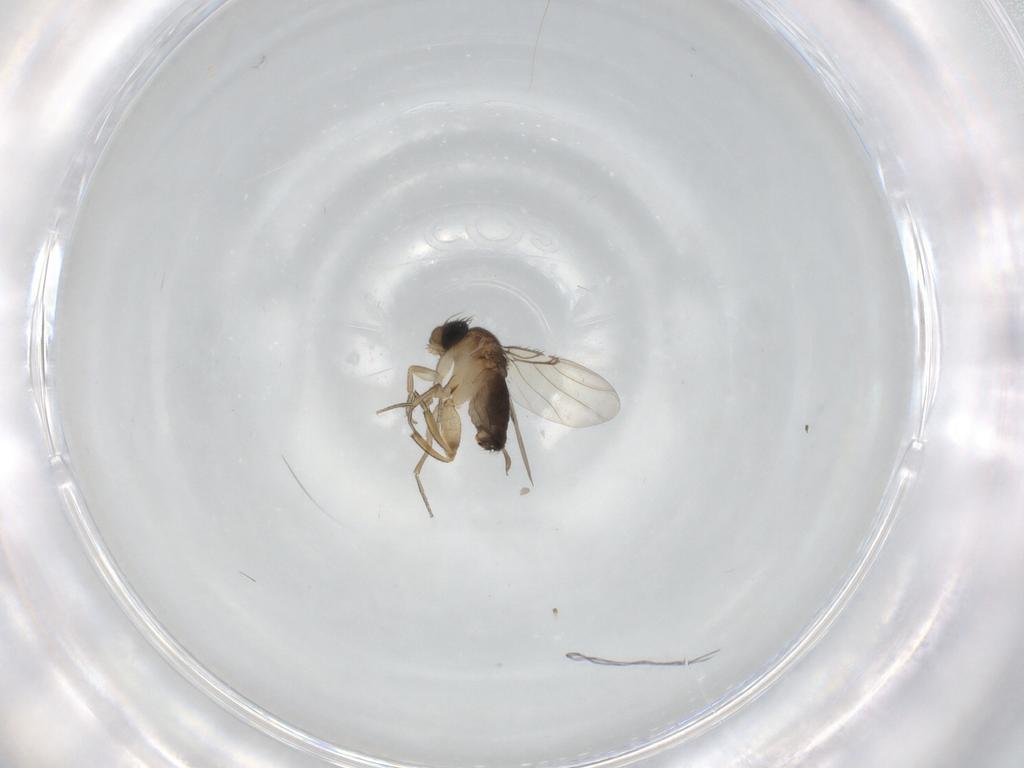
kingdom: Animalia
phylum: Arthropoda
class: Insecta
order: Diptera
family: Phoridae
